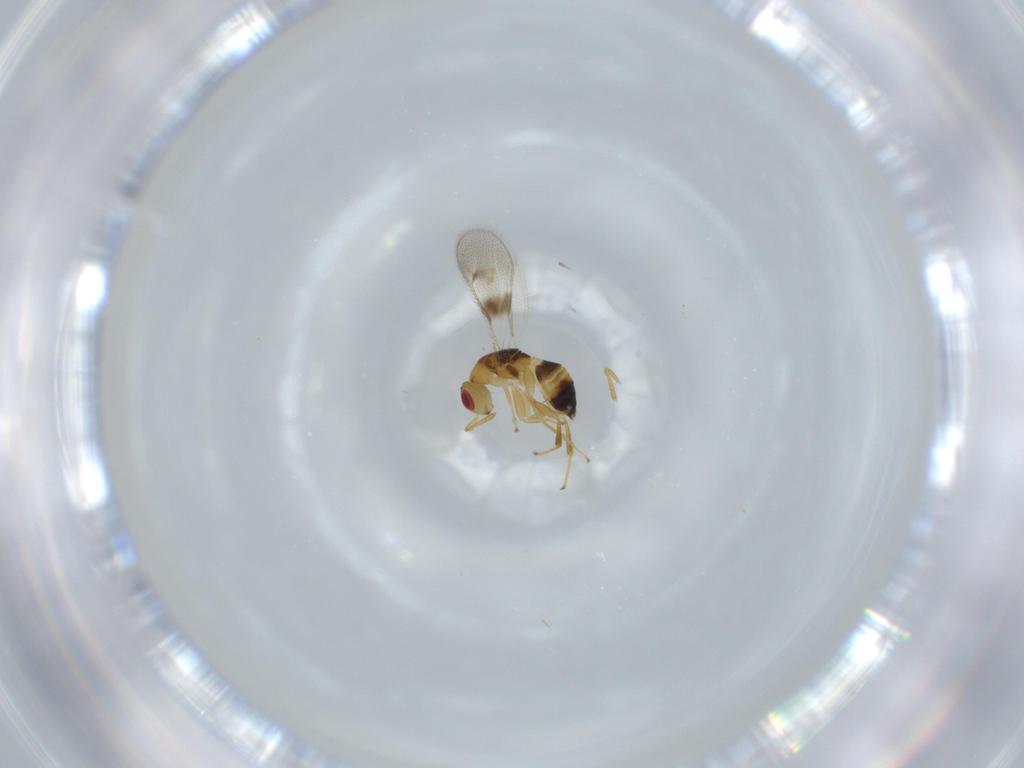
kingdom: Animalia
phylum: Arthropoda
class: Insecta
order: Hymenoptera
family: Torymidae
